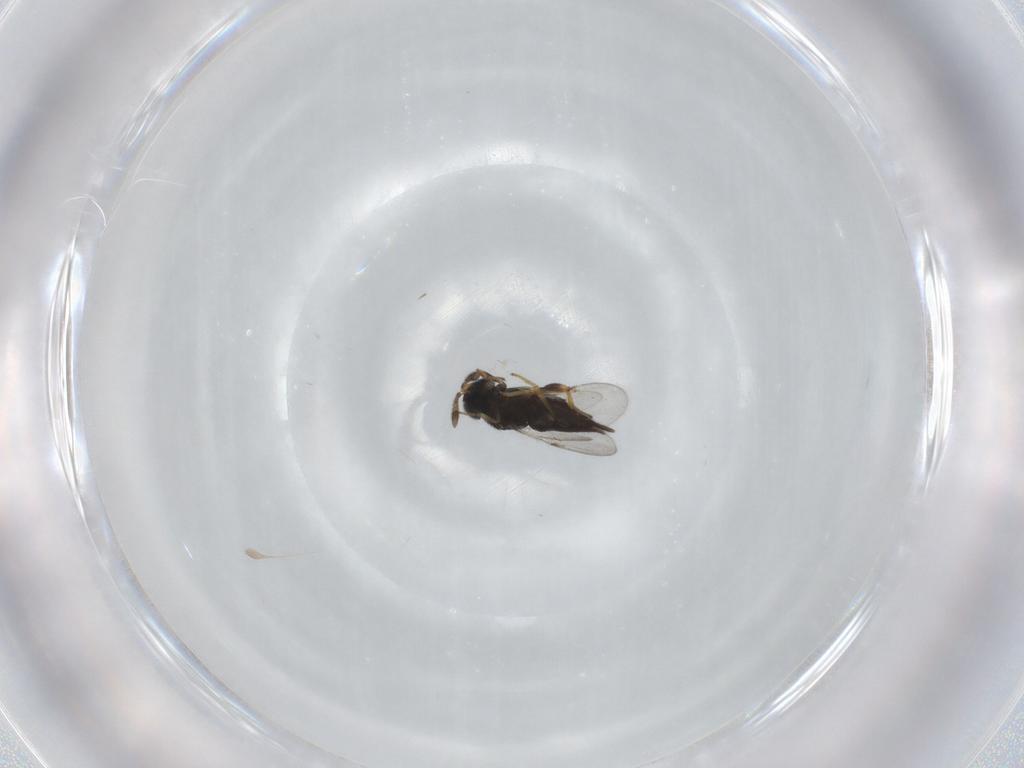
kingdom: Animalia
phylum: Arthropoda
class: Insecta
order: Hymenoptera
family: Encyrtidae
